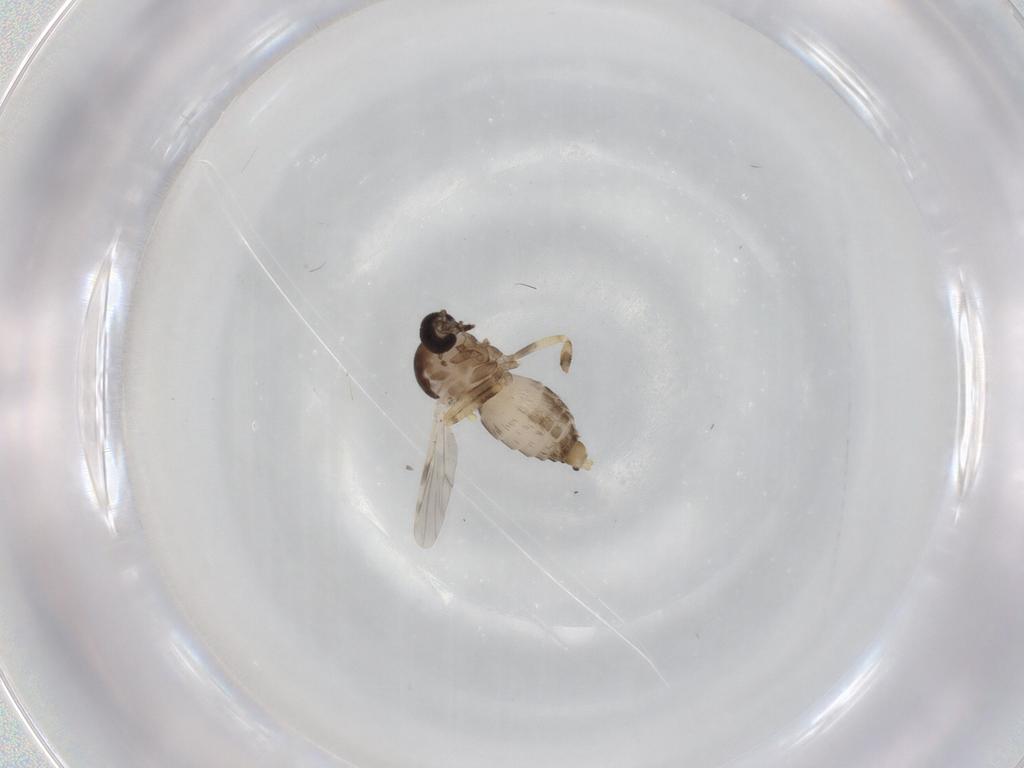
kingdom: Animalia
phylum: Arthropoda
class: Insecta
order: Diptera
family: Ceratopogonidae
